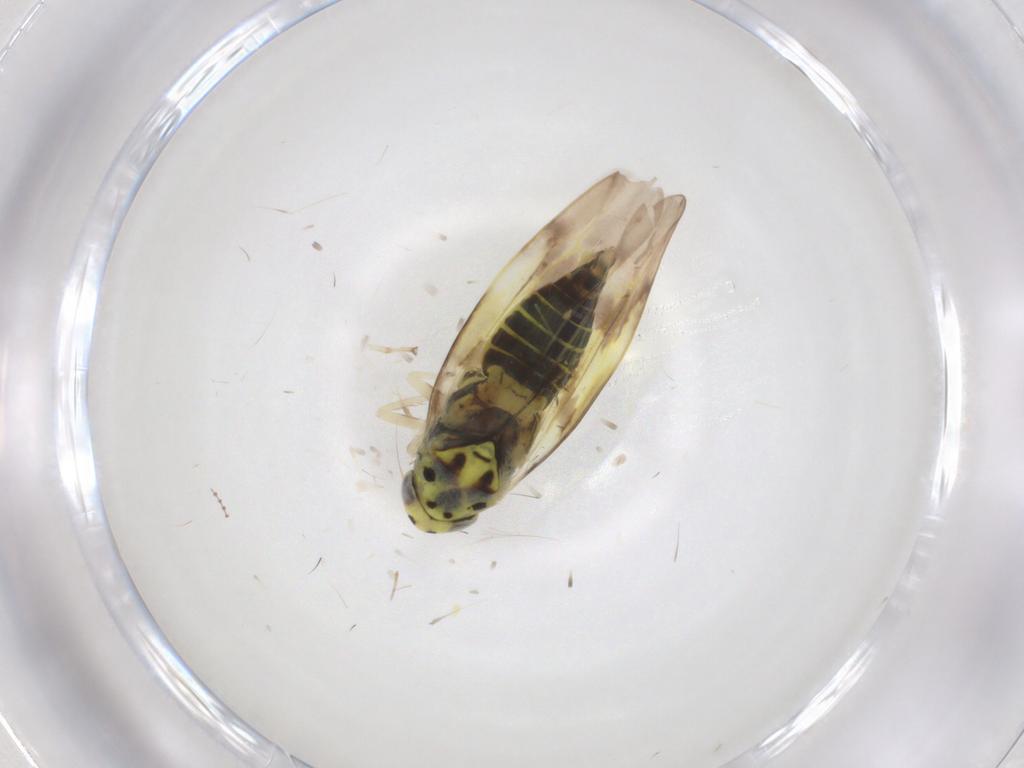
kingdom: Animalia
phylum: Arthropoda
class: Insecta
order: Hemiptera
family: Cicadellidae
